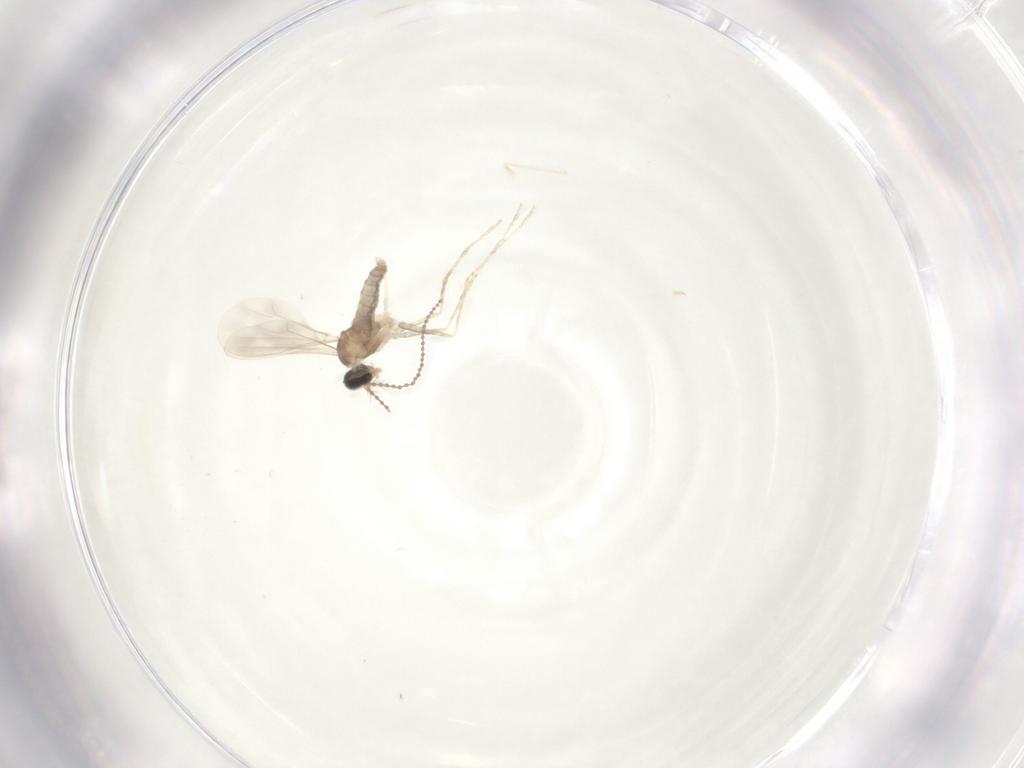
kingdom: Animalia
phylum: Arthropoda
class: Insecta
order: Diptera
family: Cecidomyiidae
